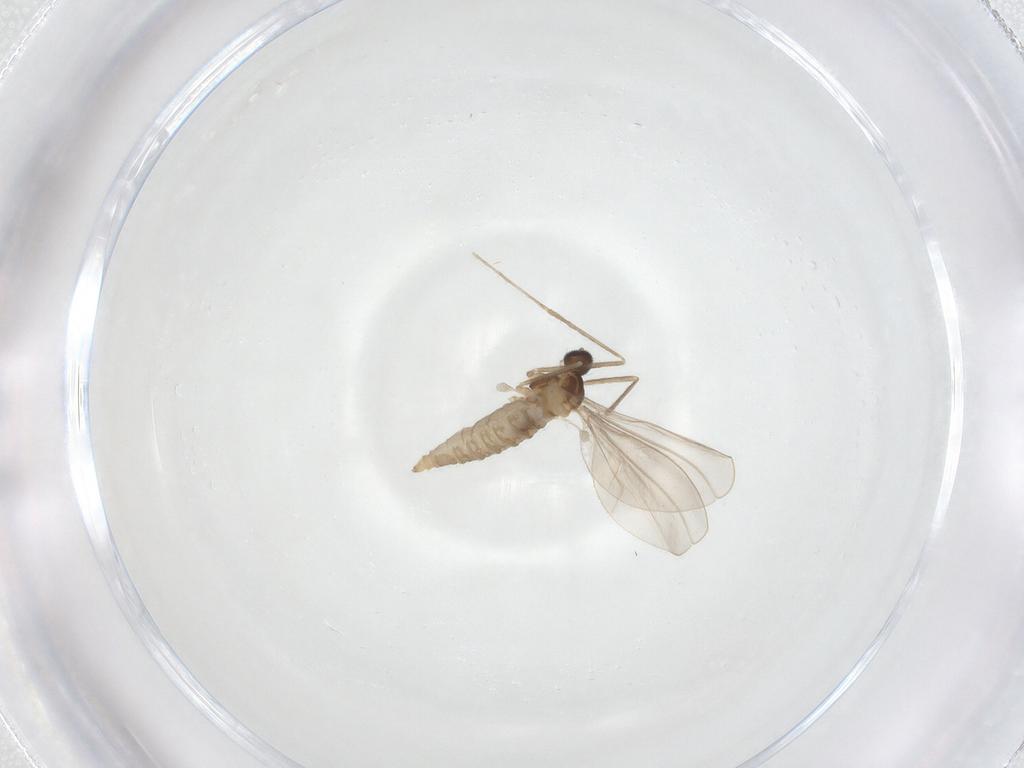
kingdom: Animalia
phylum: Arthropoda
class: Insecta
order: Diptera
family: Cecidomyiidae
